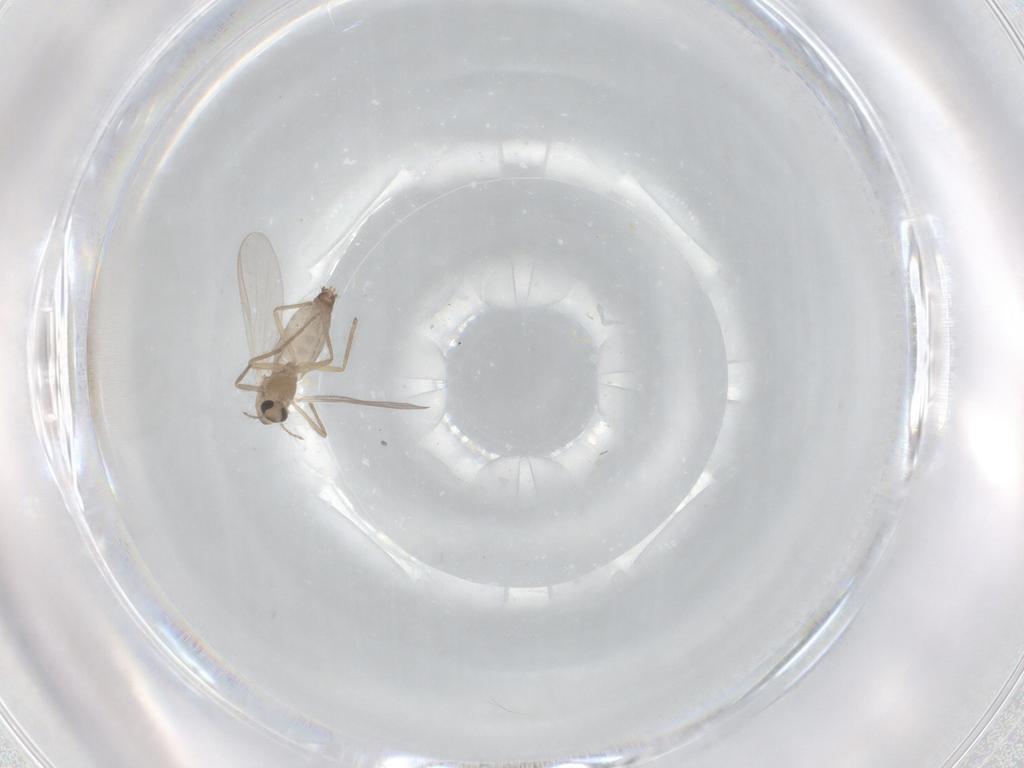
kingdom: Animalia
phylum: Arthropoda
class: Insecta
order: Diptera
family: Chironomidae
